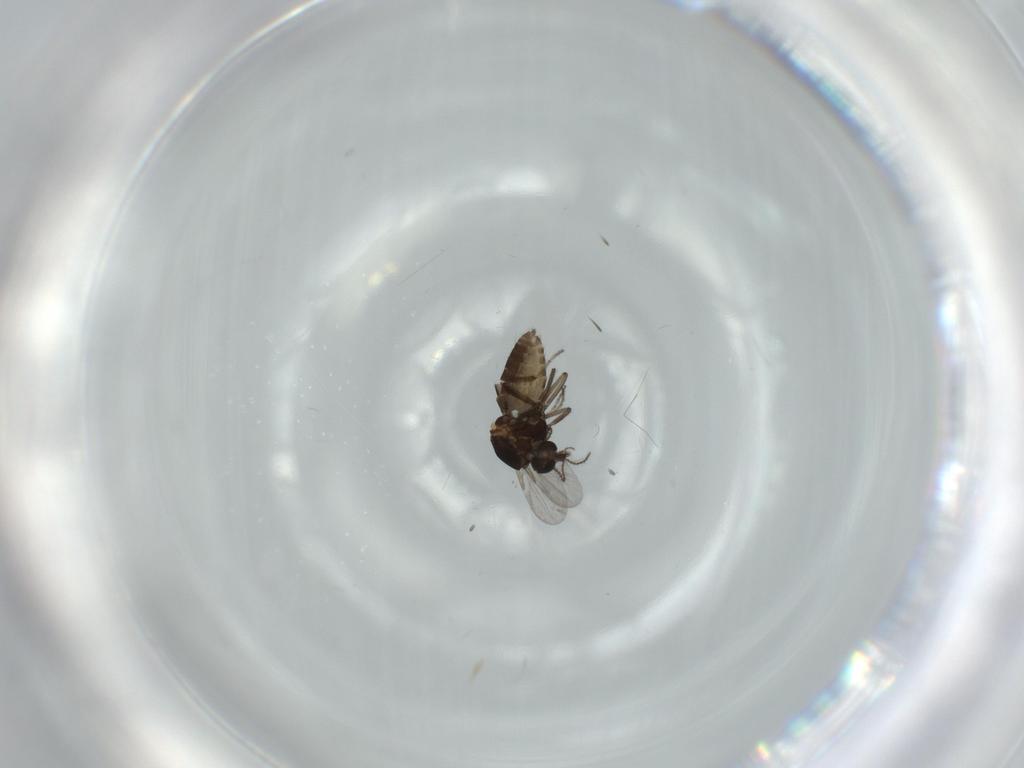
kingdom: Animalia
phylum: Arthropoda
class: Insecta
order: Diptera
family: Ceratopogonidae
